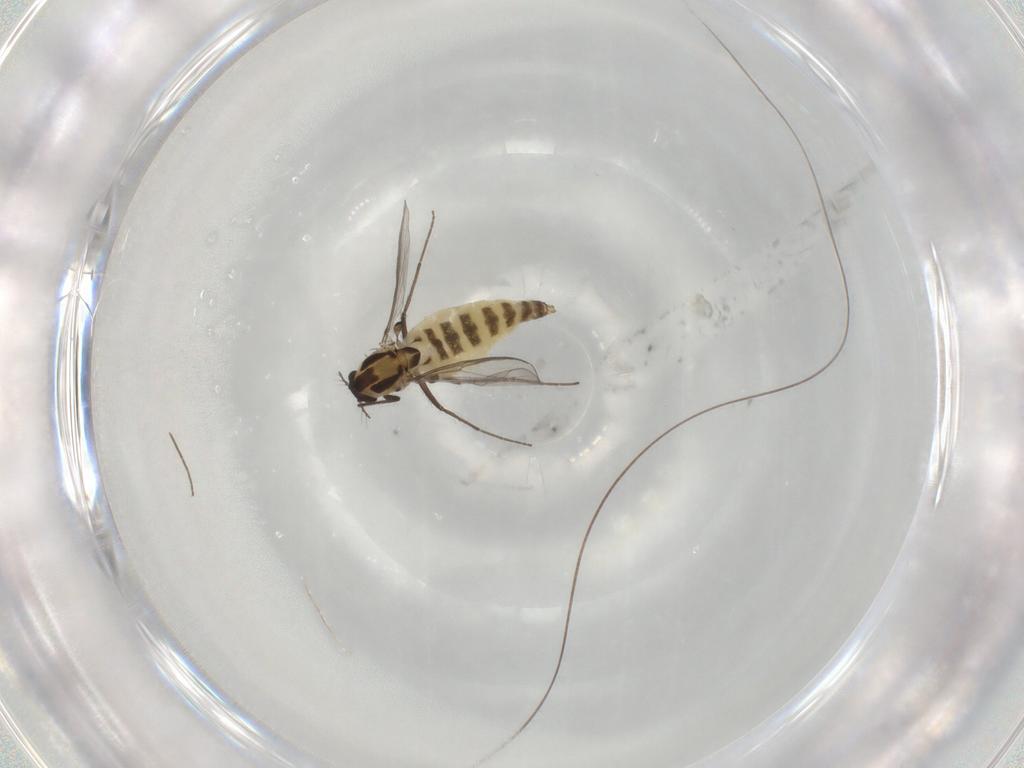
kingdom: Animalia
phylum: Arthropoda
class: Insecta
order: Diptera
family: Chironomidae
